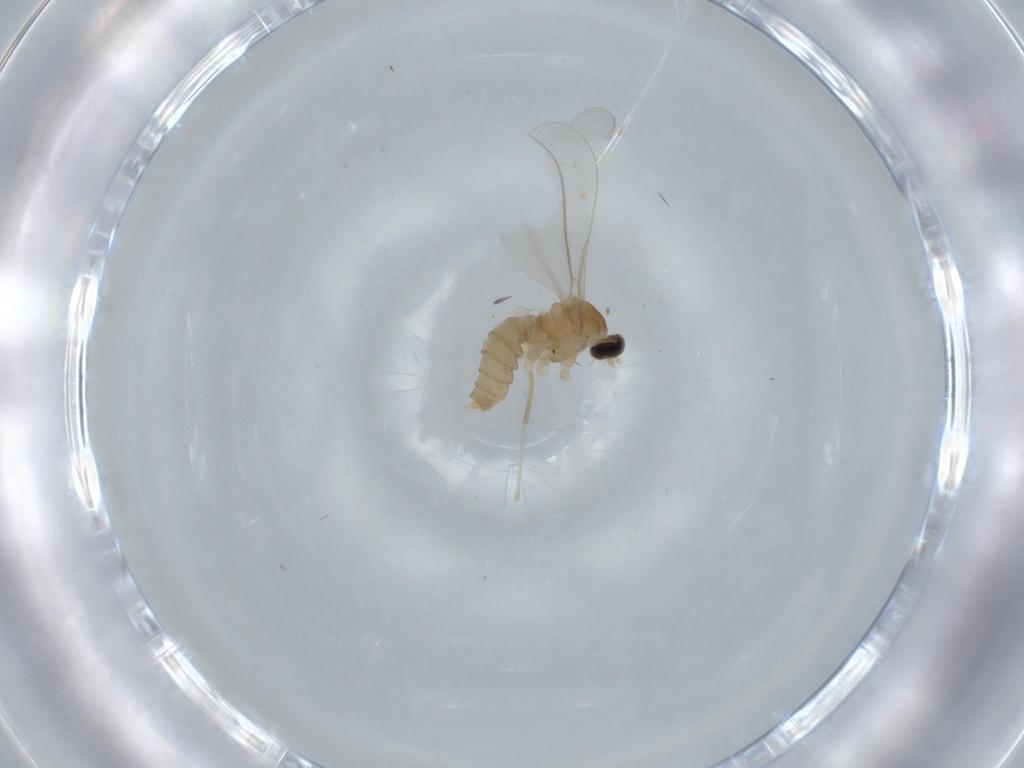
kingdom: Animalia
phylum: Arthropoda
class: Insecta
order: Diptera
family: Cecidomyiidae
